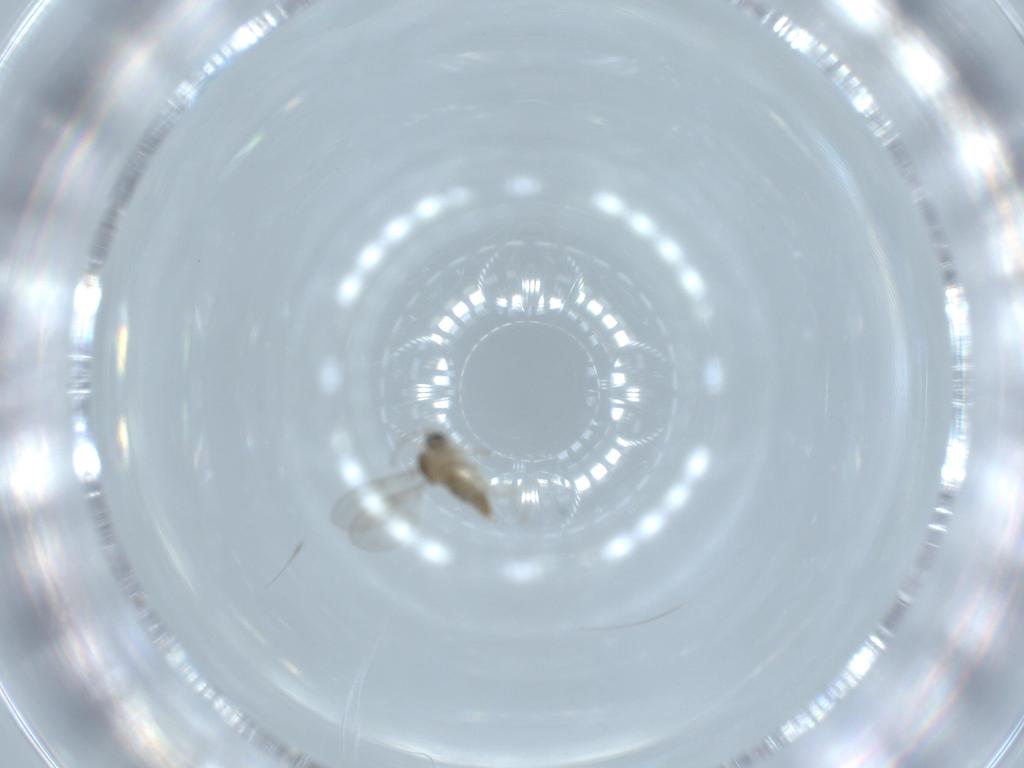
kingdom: Animalia
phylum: Arthropoda
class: Insecta
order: Diptera
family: Cecidomyiidae
